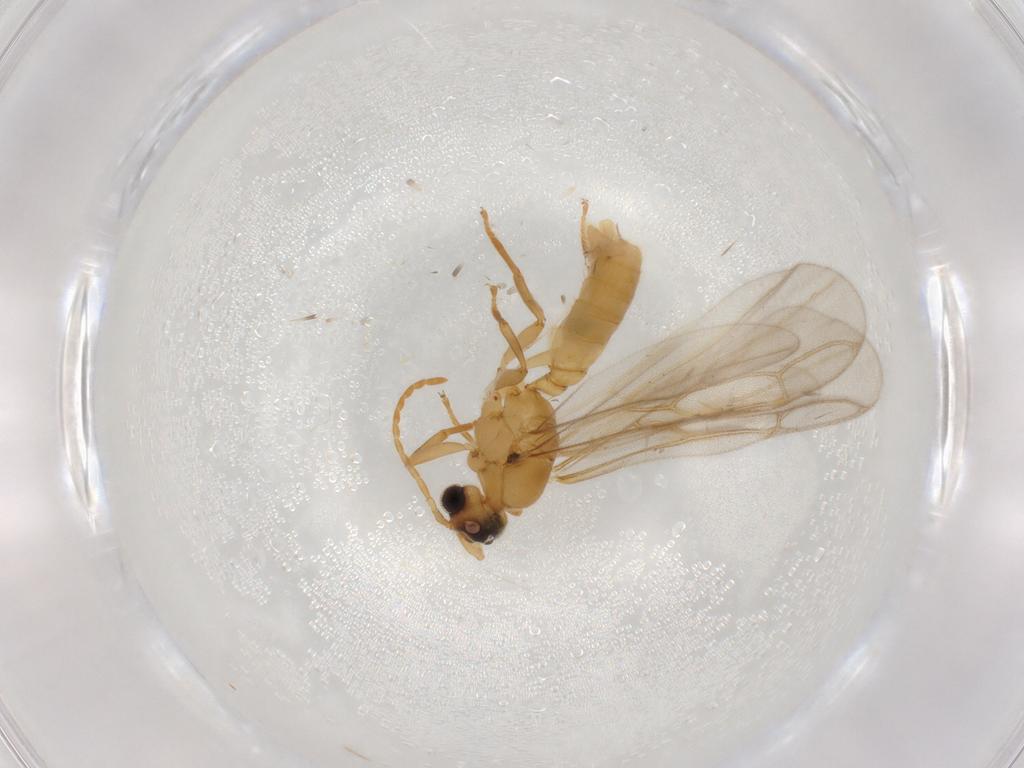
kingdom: Animalia
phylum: Arthropoda
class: Insecta
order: Hymenoptera
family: Formicidae
